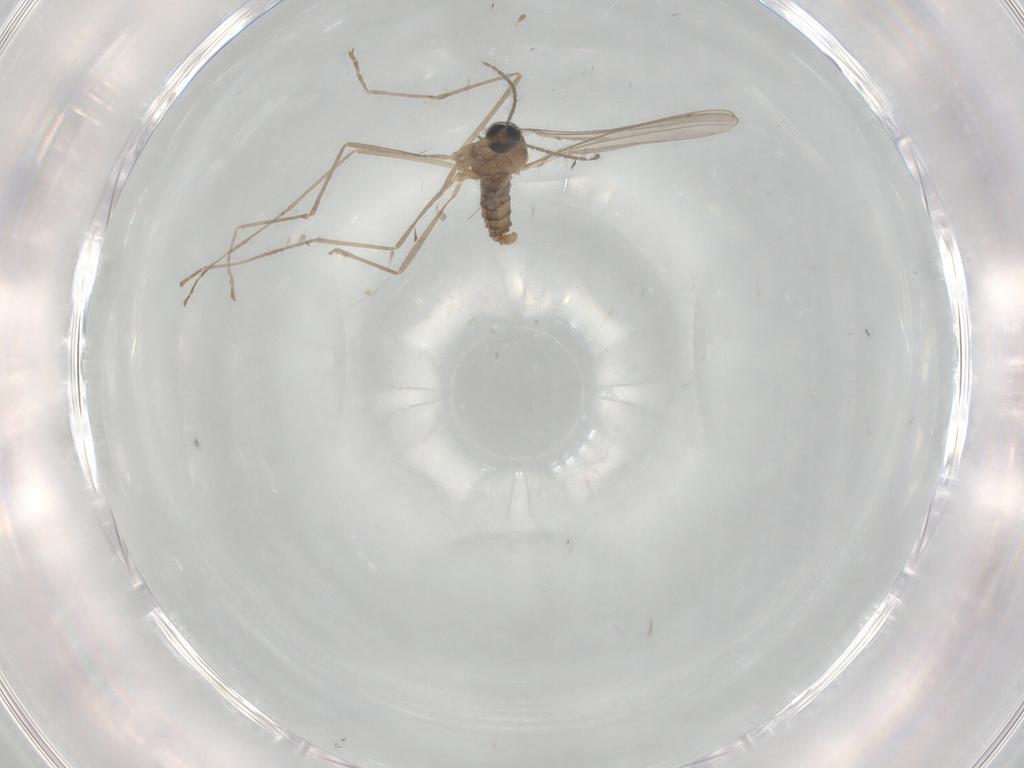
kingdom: Animalia
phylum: Arthropoda
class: Insecta
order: Diptera
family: Cecidomyiidae
